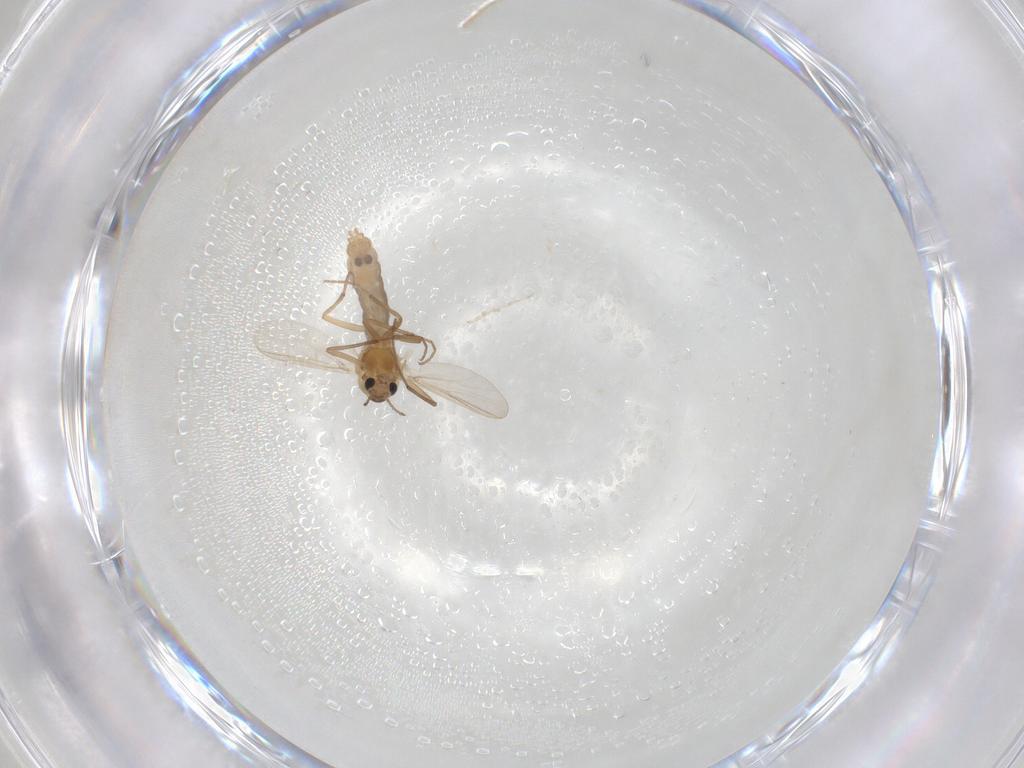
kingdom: Animalia
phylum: Arthropoda
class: Insecta
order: Diptera
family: Chironomidae
